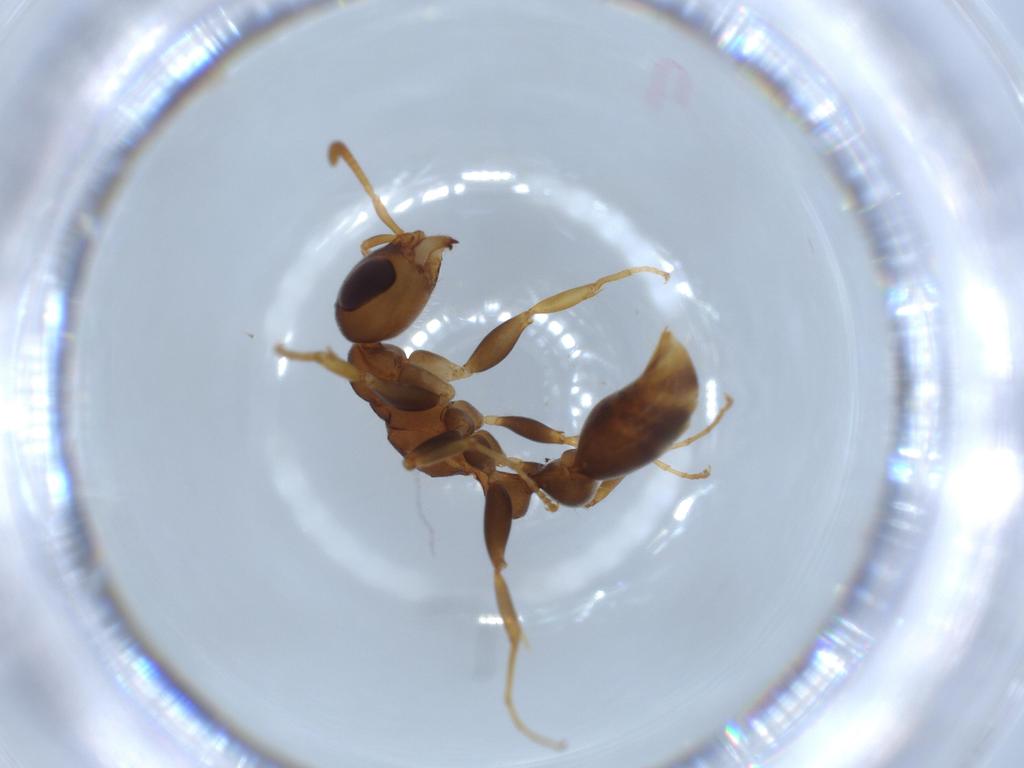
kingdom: Animalia
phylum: Arthropoda
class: Insecta
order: Hymenoptera
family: Formicidae
